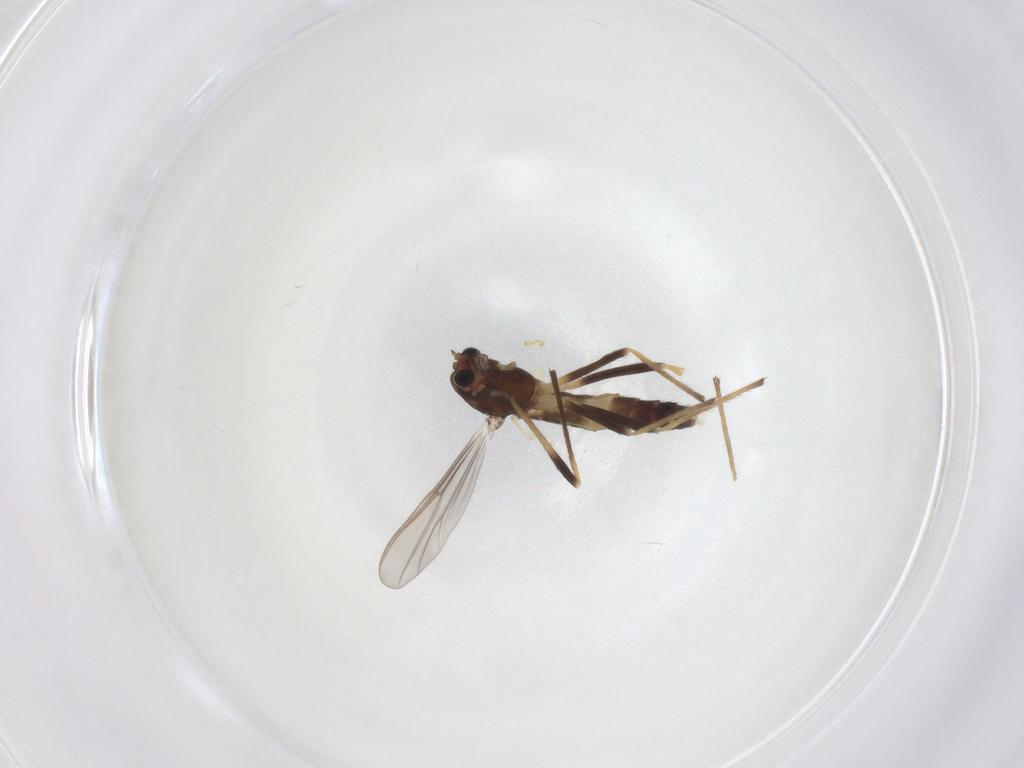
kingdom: Animalia
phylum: Arthropoda
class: Insecta
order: Diptera
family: Chironomidae
